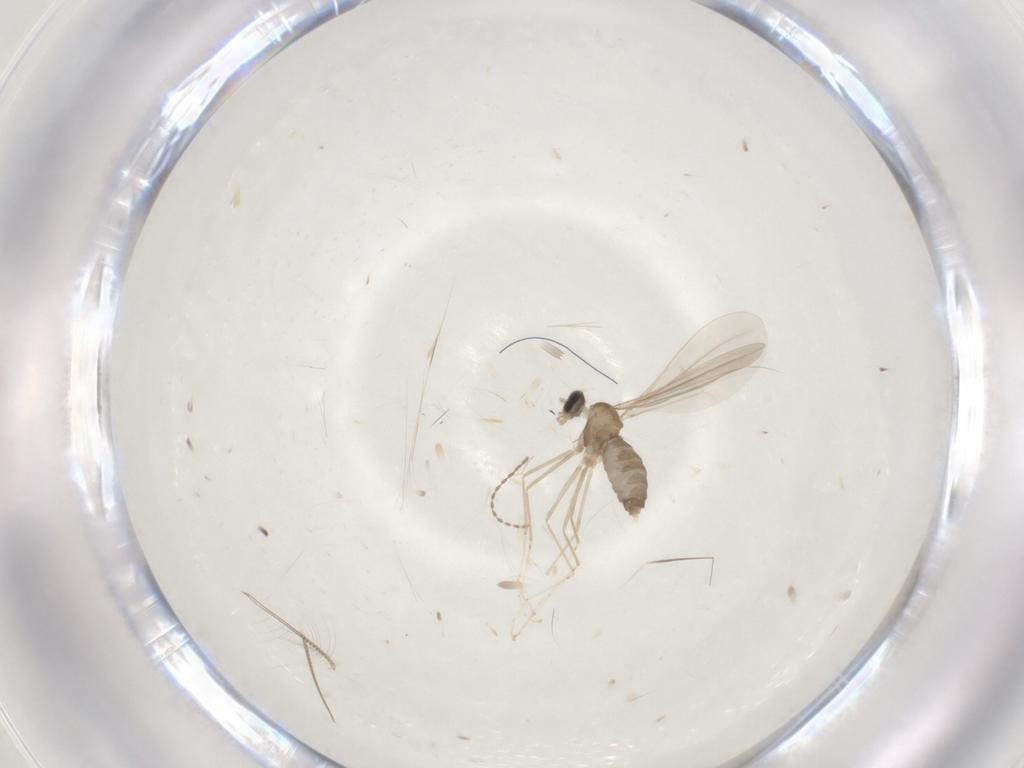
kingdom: Animalia
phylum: Arthropoda
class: Insecta
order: Diptera
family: Cecidomyiidae
